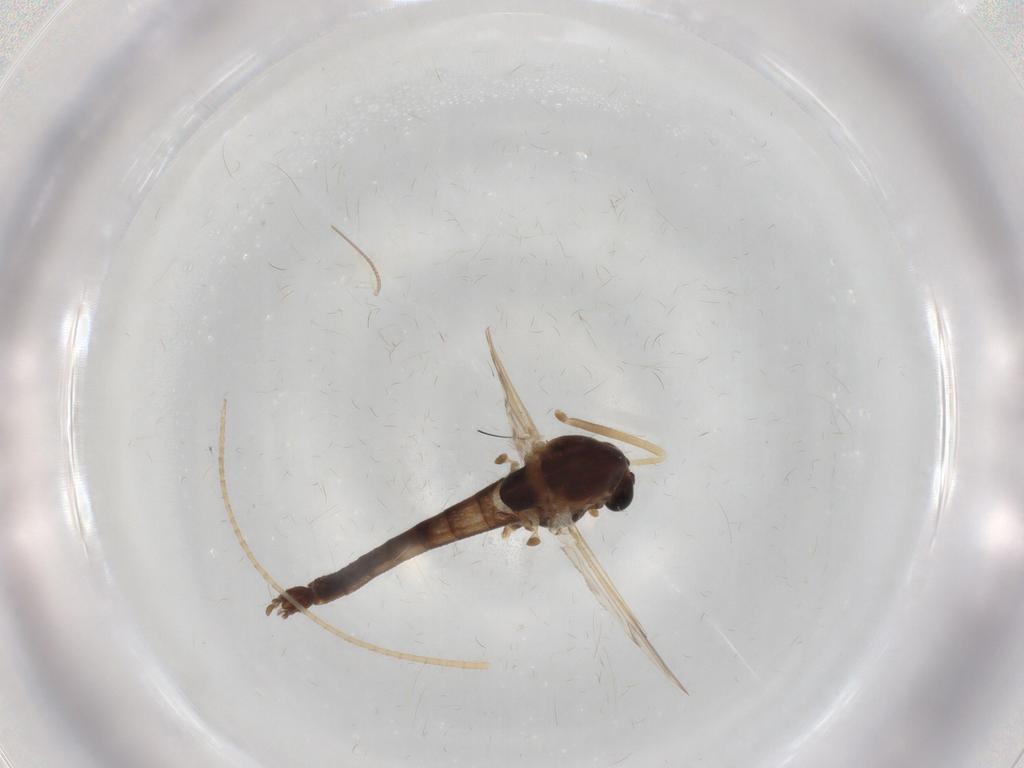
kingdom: Animalia
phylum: Arthropoda
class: Insecta
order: Diptera
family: Chironomidae
